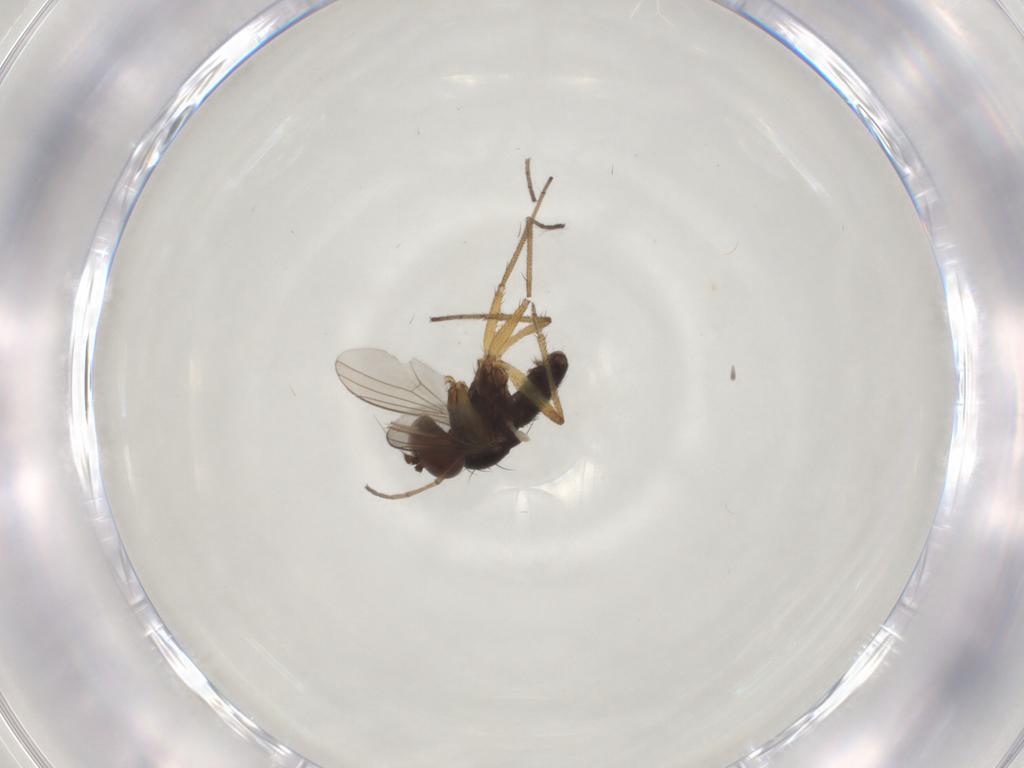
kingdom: Animalia
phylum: Arthropoda
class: Insecta
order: Diptera
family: Dolichopodidae
